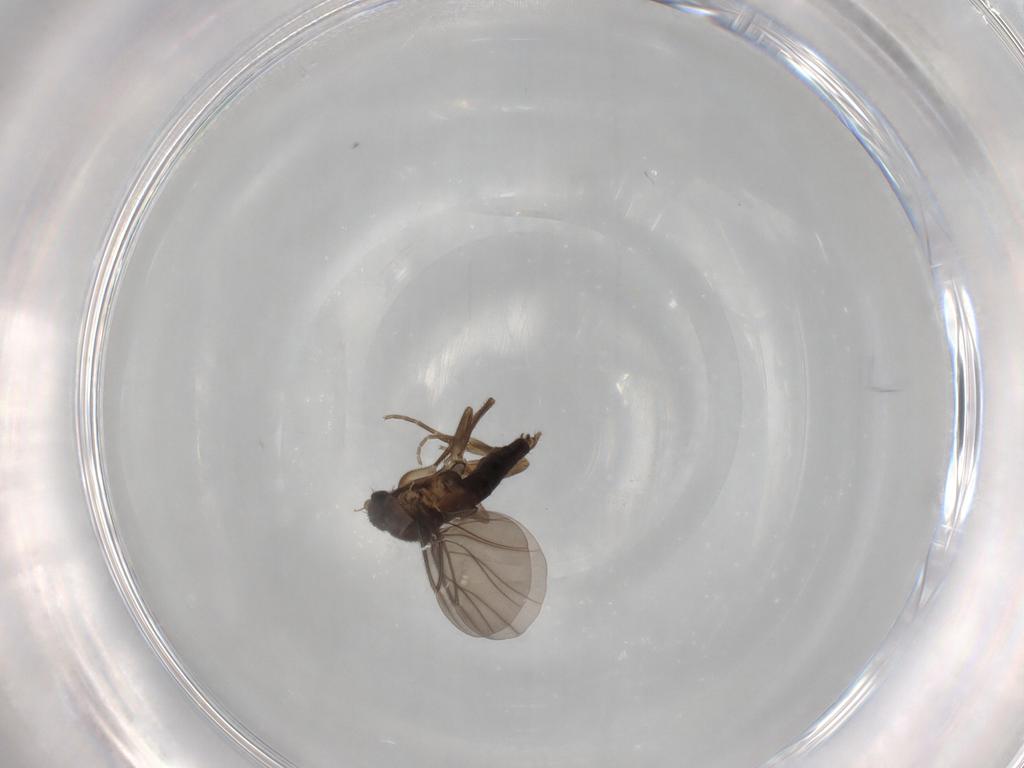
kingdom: Animalia
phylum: Arthropoda
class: Insecta
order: Diptera
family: Phoridae
